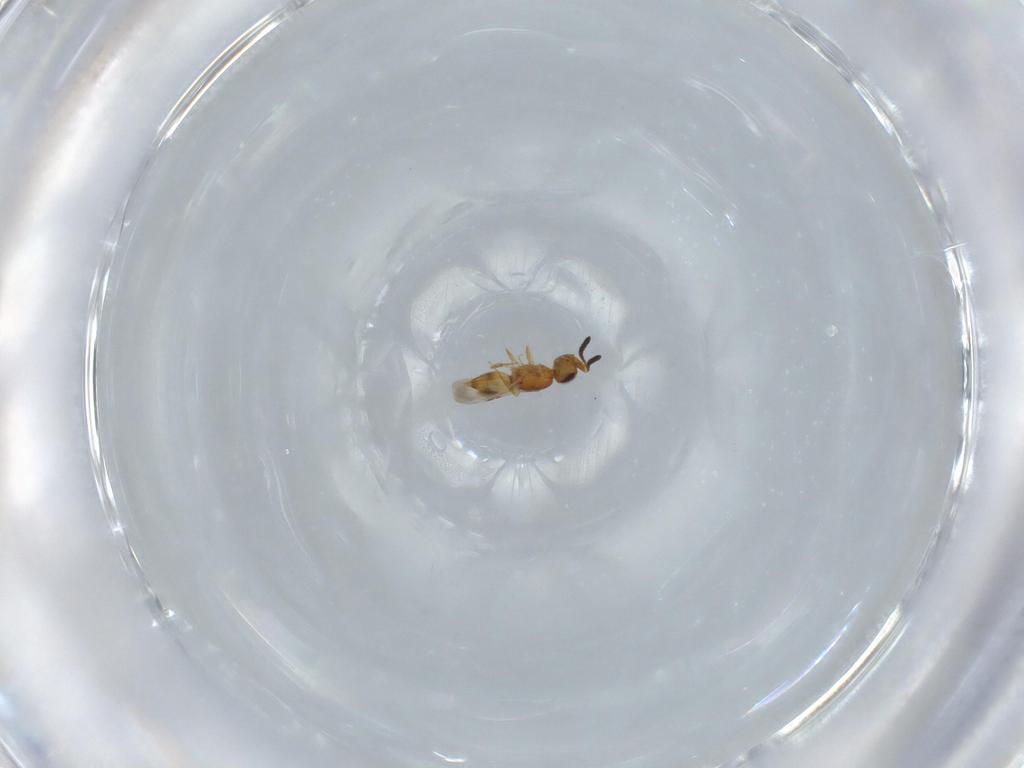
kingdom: Animalia
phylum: Arthropoda
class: Insecta
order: Hymenoptera
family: Ceraphronidae
